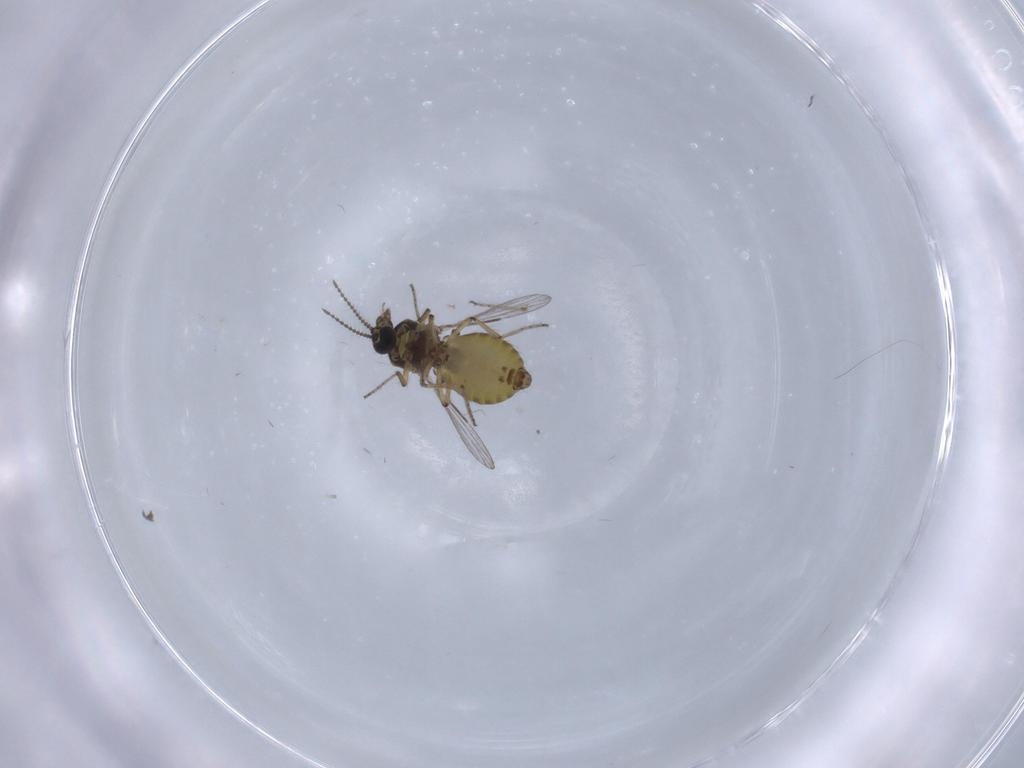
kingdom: Animalia
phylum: Arthropoda
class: Insecta
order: Diptera
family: Ceratopogonidae
